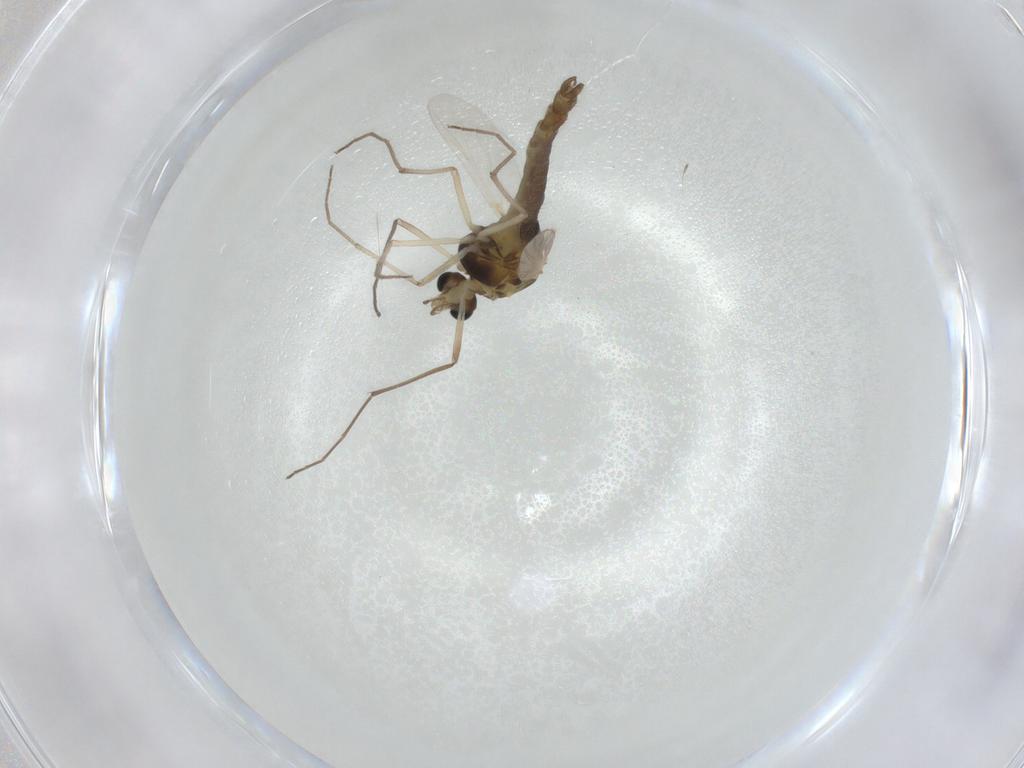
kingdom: Animalia
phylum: Arthropoda
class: Insecta
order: Diptera
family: Chironomidae
